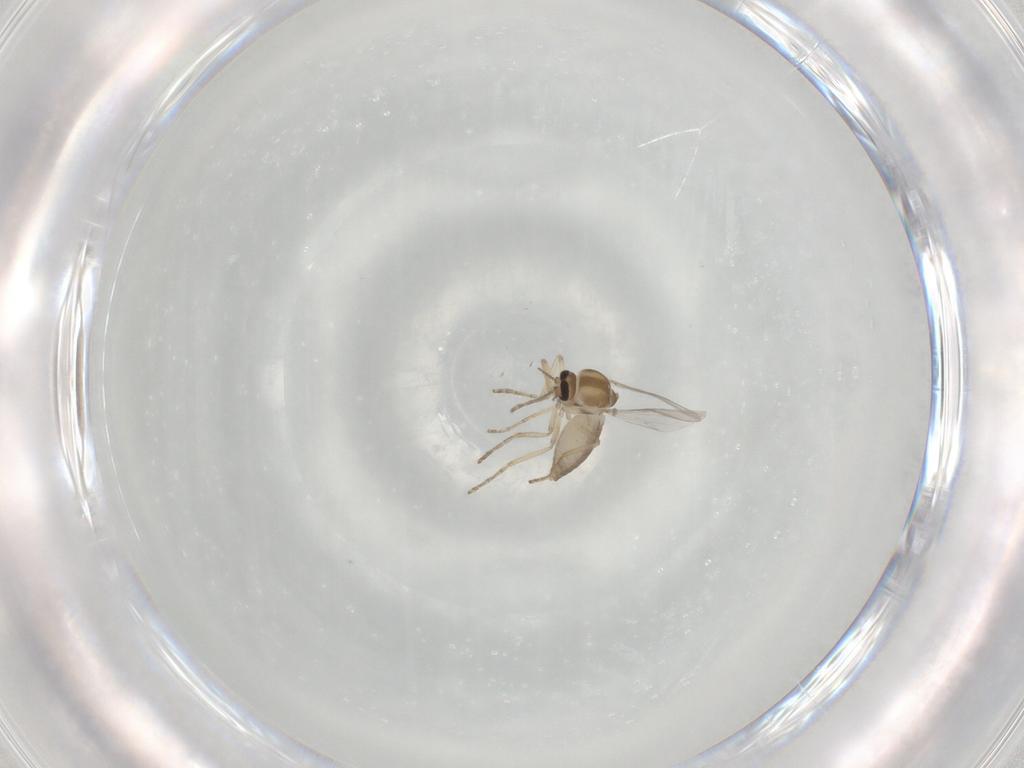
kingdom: Animalia
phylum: Arthropoda
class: Insecta
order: Diptera
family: Ceratopogonidae
